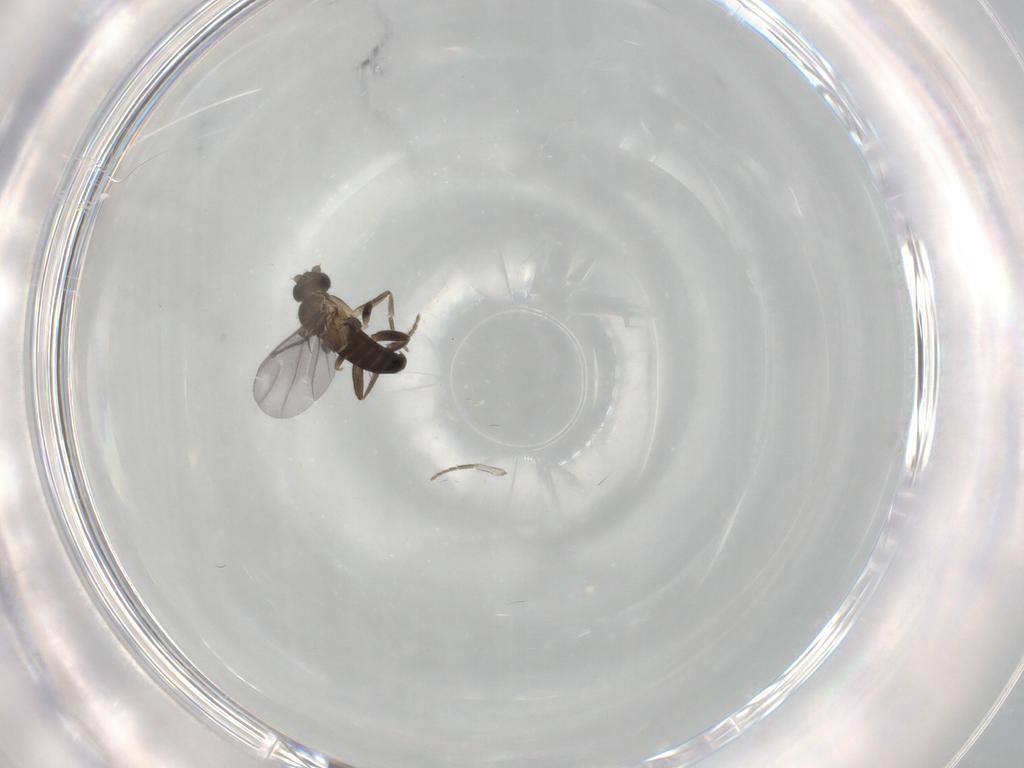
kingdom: Animalia
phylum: Arthropoda
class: Insecta
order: Diptera
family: Phoridae
